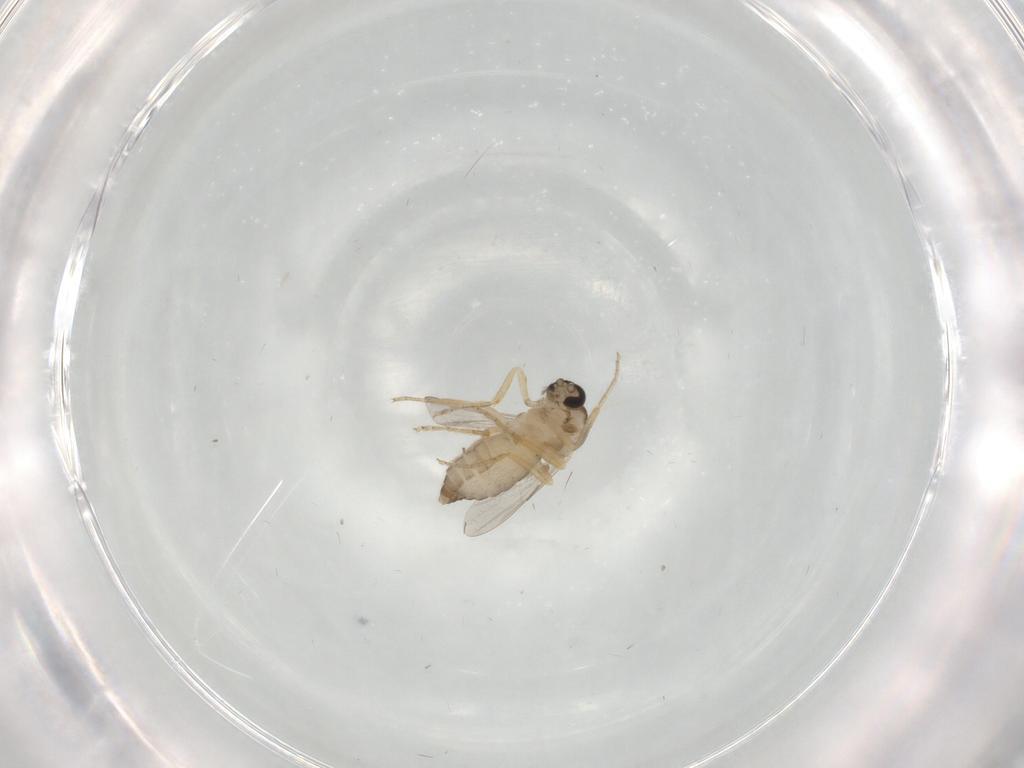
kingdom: Animalia
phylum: Arthropoda
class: Insecta
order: Diptera
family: Ceratopogonidae
